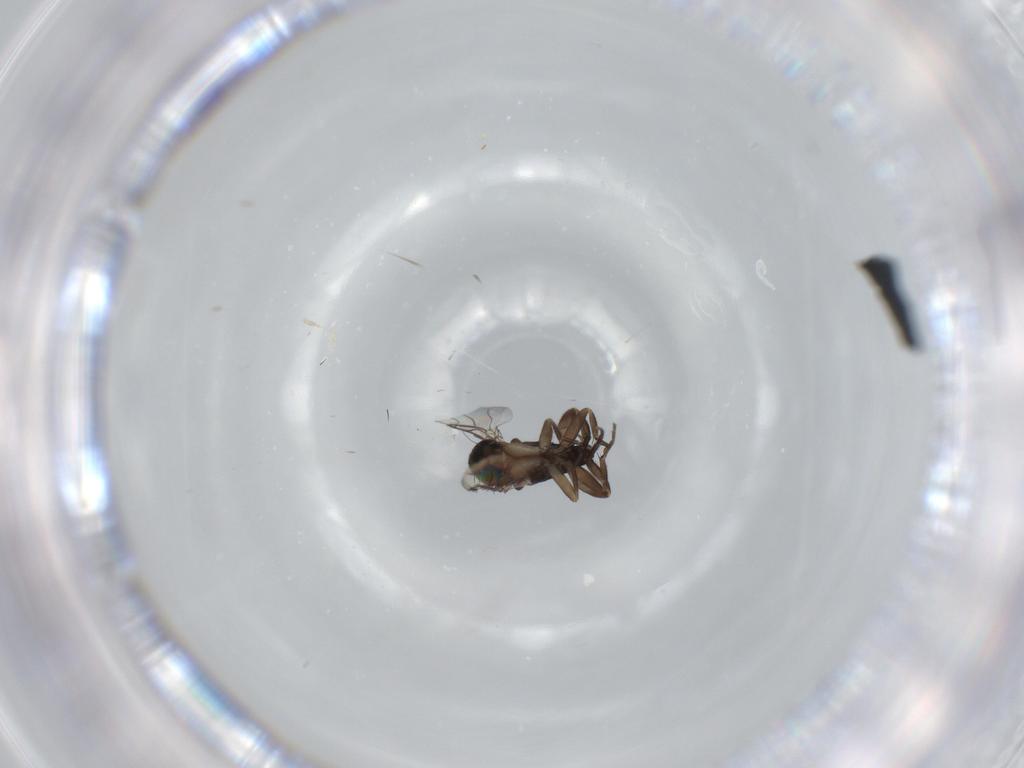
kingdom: Animalia
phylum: Arthropoda
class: Insecta
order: Diptera
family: Phoridae
